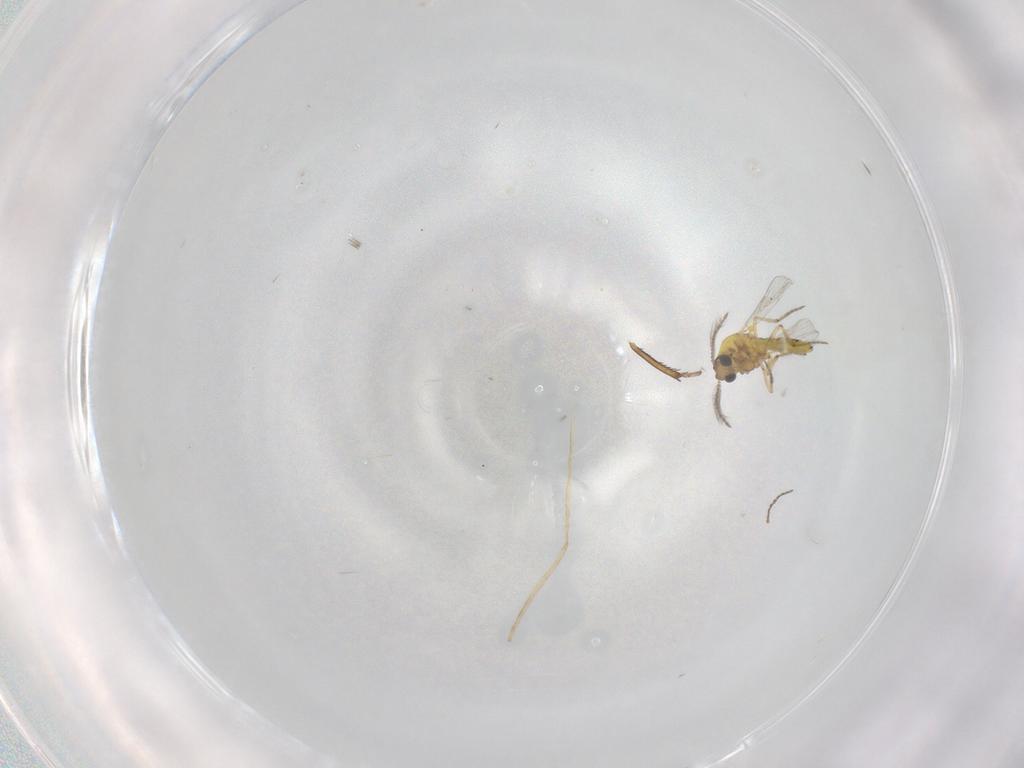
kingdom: Animalia
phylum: Arthropoda
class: Insecta
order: Diptera
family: Ceratopogonidae
